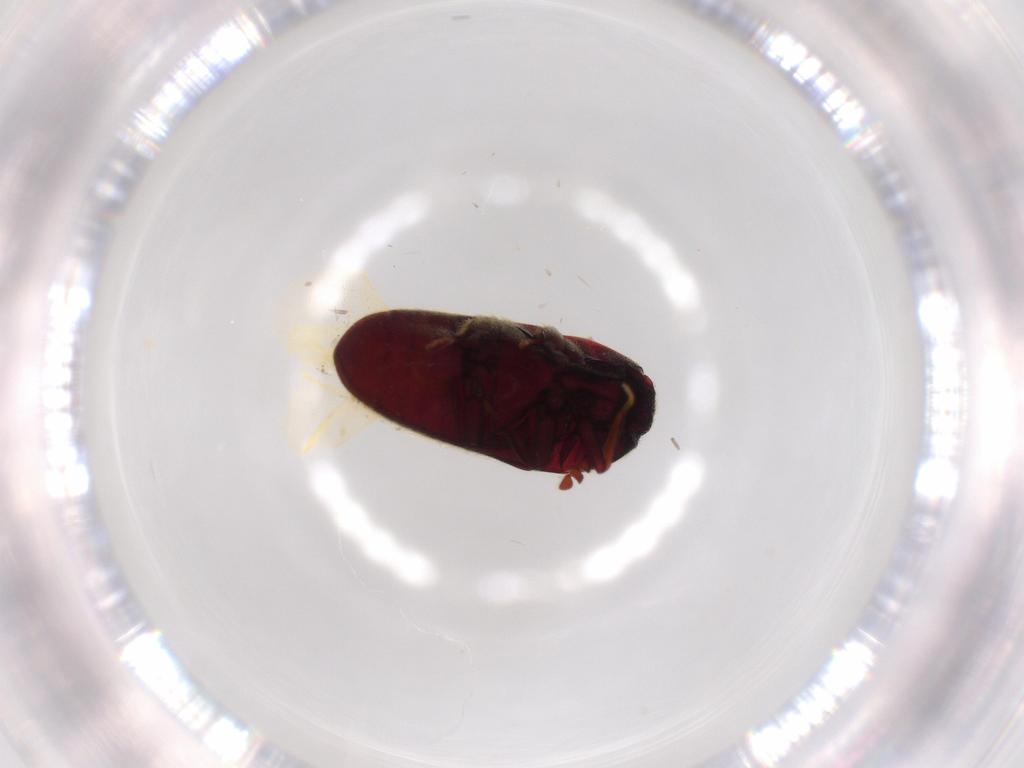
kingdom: Animalia
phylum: Arthropoda
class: Insecta
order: Coleoptera
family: Throscidae
